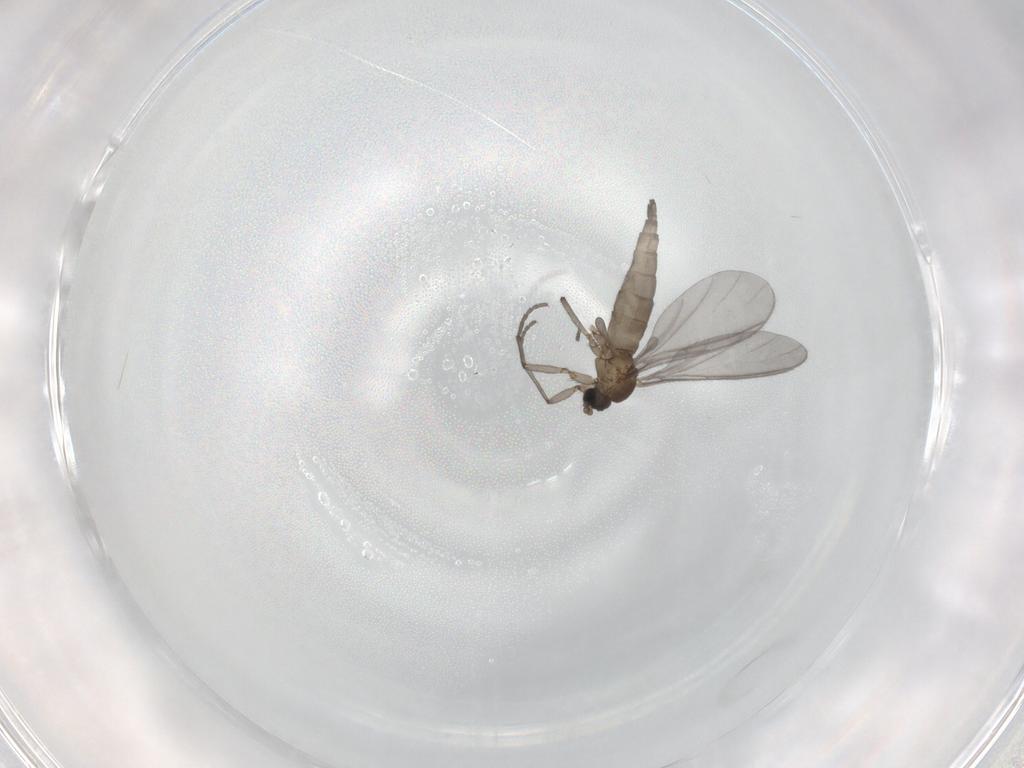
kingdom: Animalia
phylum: Arthropoda
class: Insecta
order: Diptera
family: Sciaridae
